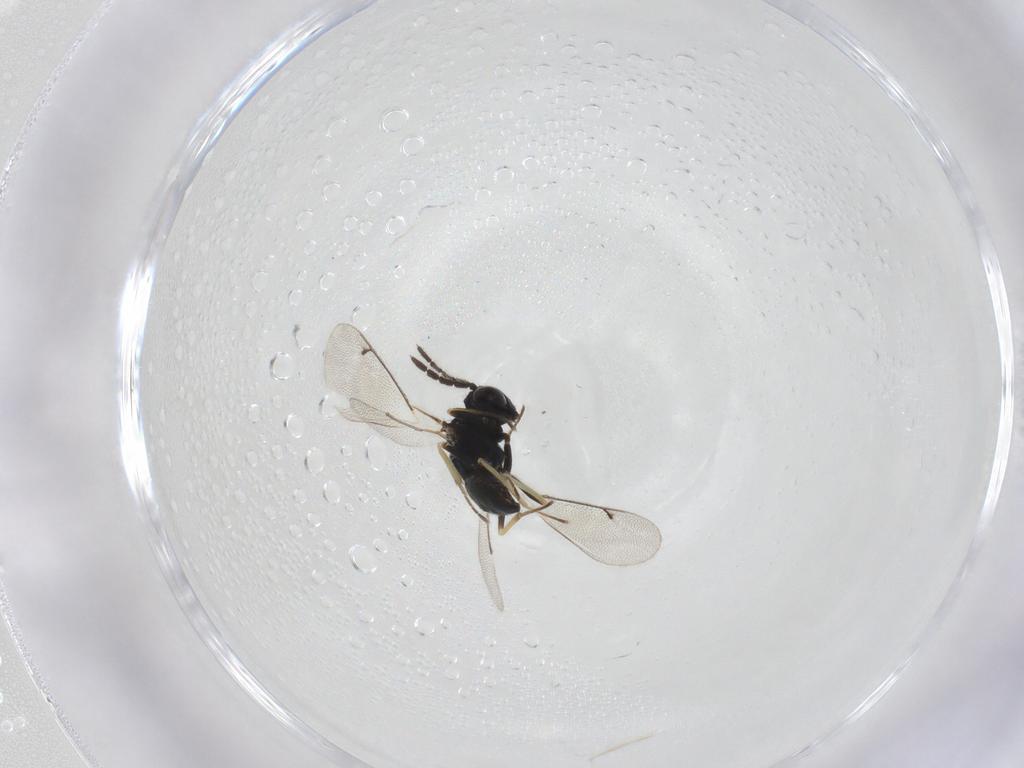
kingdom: Animalia
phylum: Arthropoda
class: Insecta
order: Hymenoptera
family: Eulophidae
